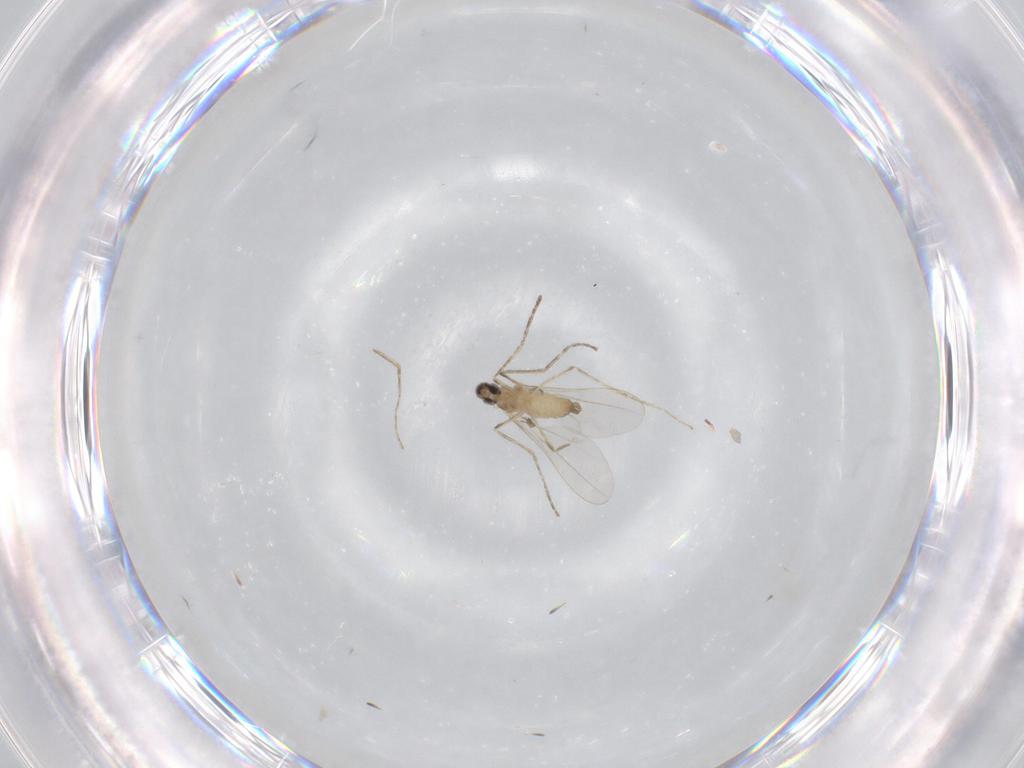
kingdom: Animalia
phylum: Arthropoda
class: Insecta
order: Diptera
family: Cecidomyiidae
